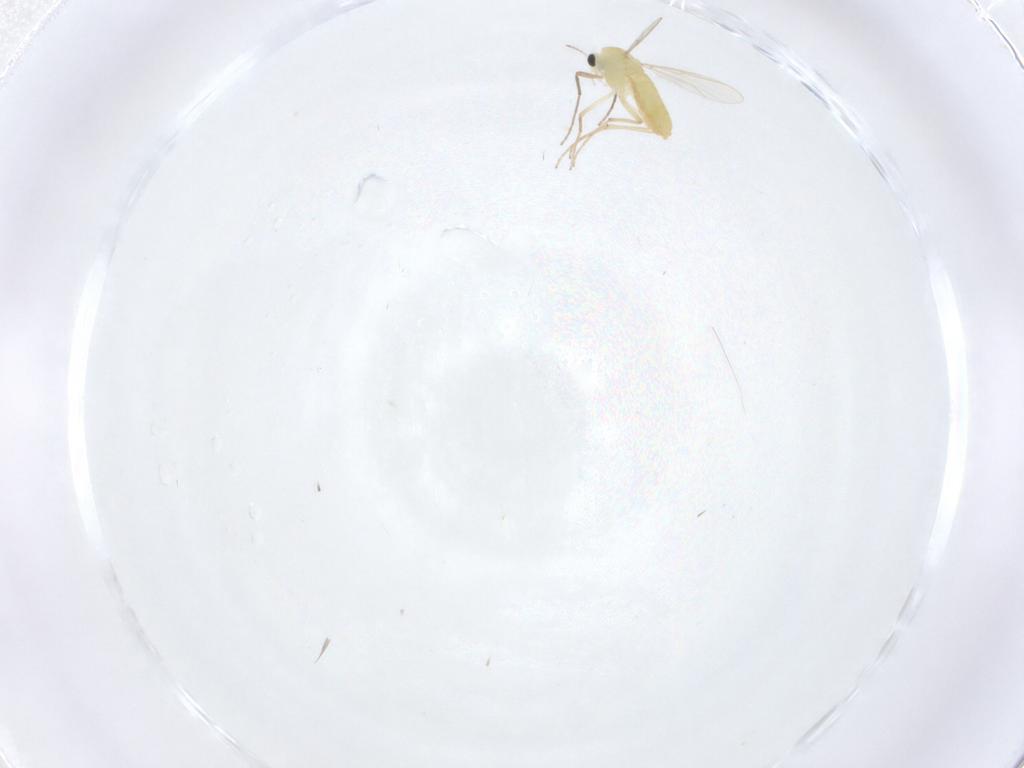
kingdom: Animalia
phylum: Arthropoda
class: Insecta
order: Diptera
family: Chironomidae
